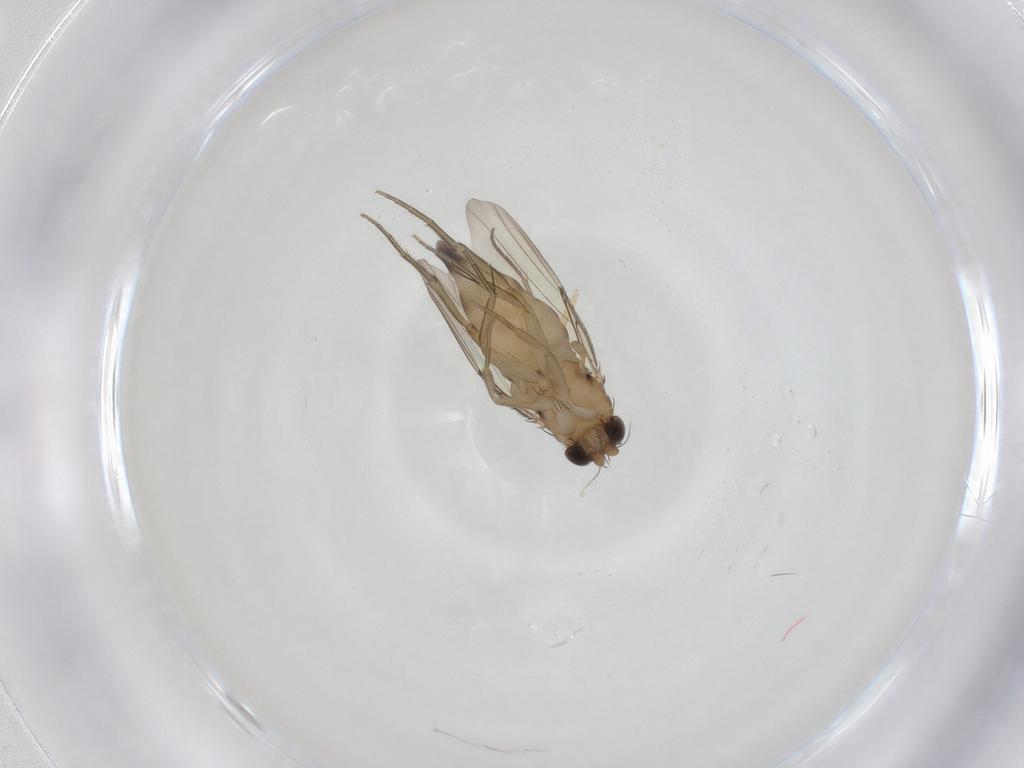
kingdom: Animalia
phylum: Arthropoda
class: Insecta
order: Diptera
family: Phoridae
